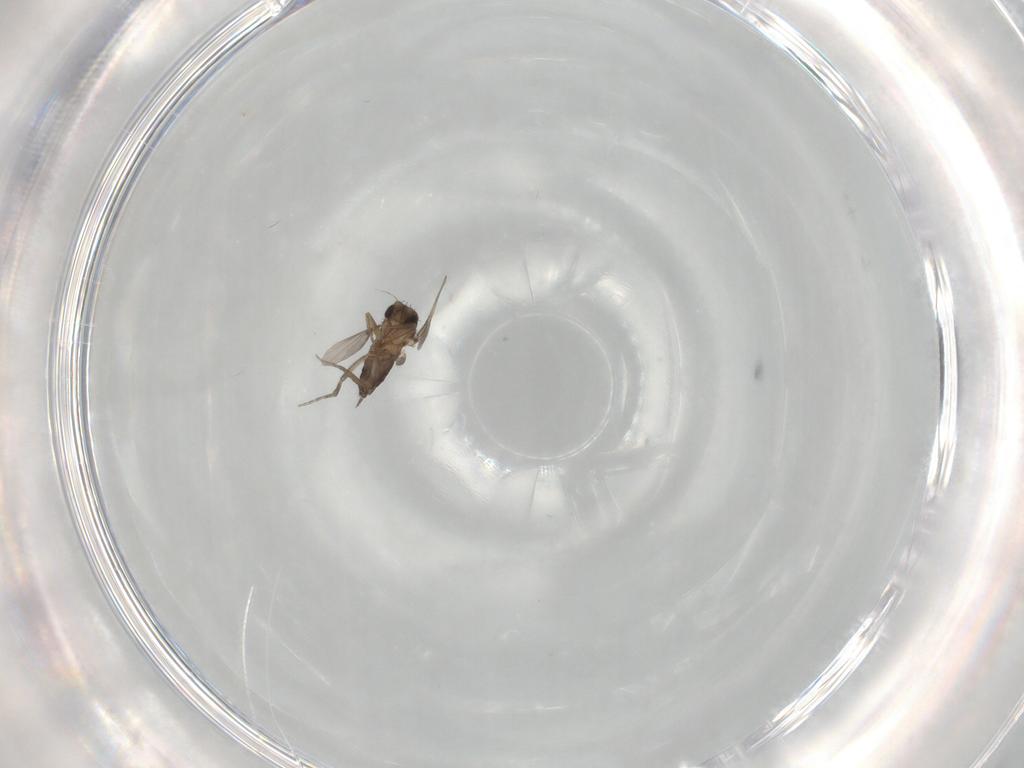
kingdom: Animalia
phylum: Arthropoda
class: Insecta
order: Diptera
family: Phoridae
